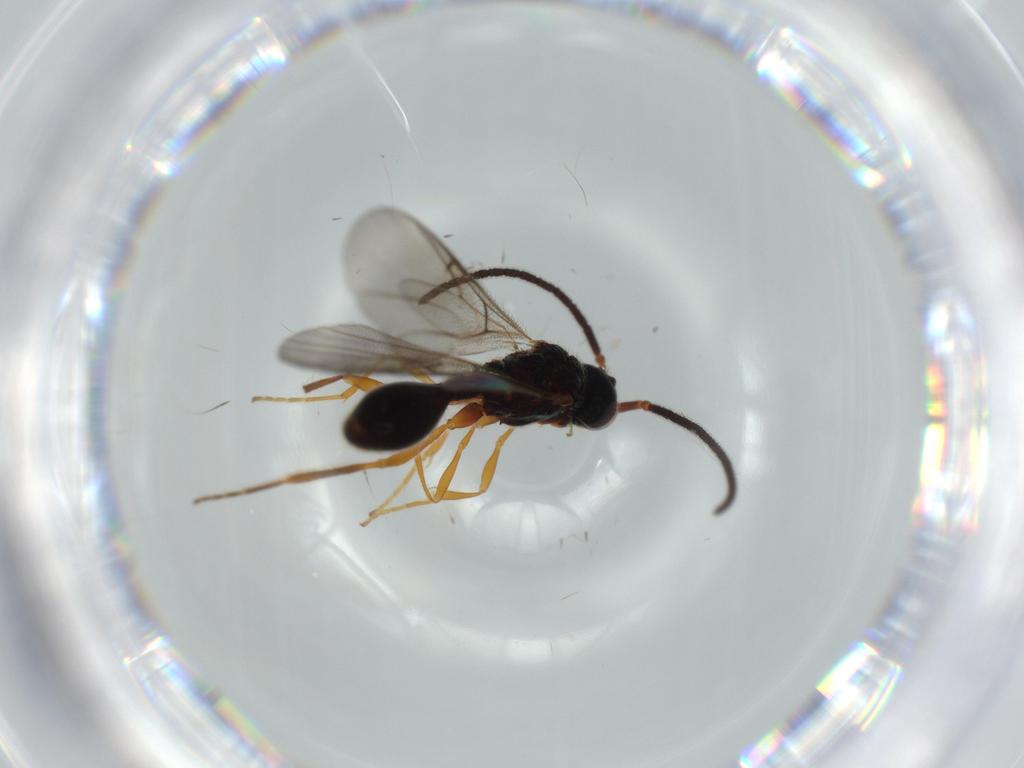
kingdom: Animalia
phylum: Arthropoda
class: Insecta
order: Hymenoptera
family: Diapriidae
